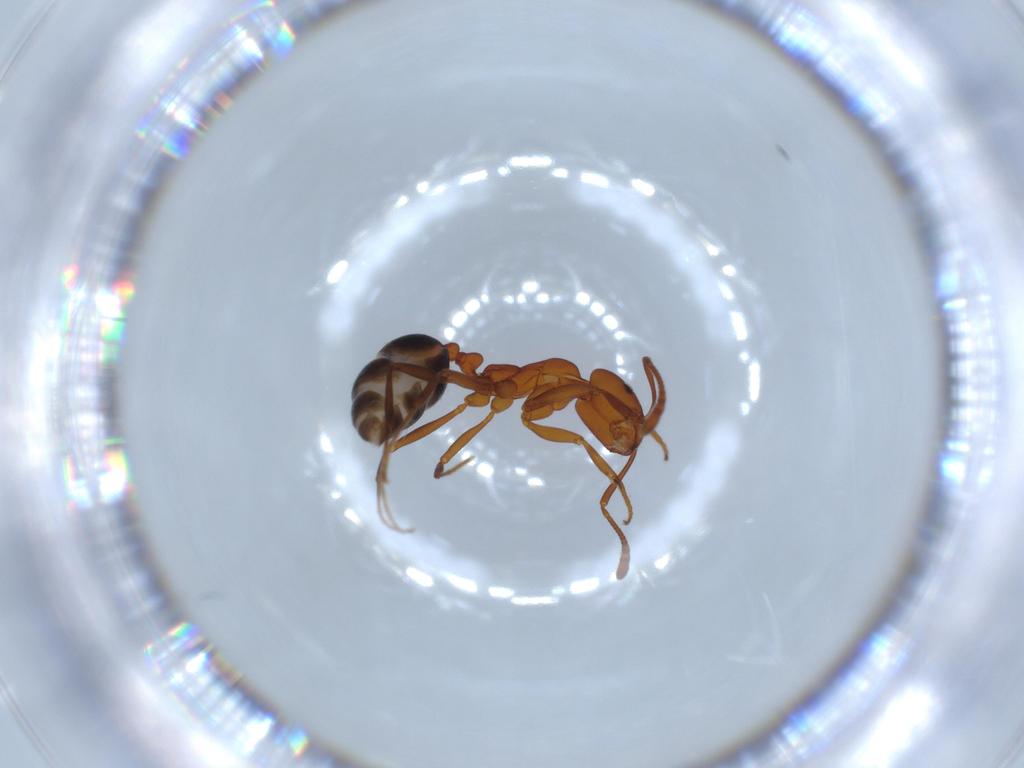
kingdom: Animalia
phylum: Arthropoda
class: Insecta
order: Hymenoptera
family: Formicidae
